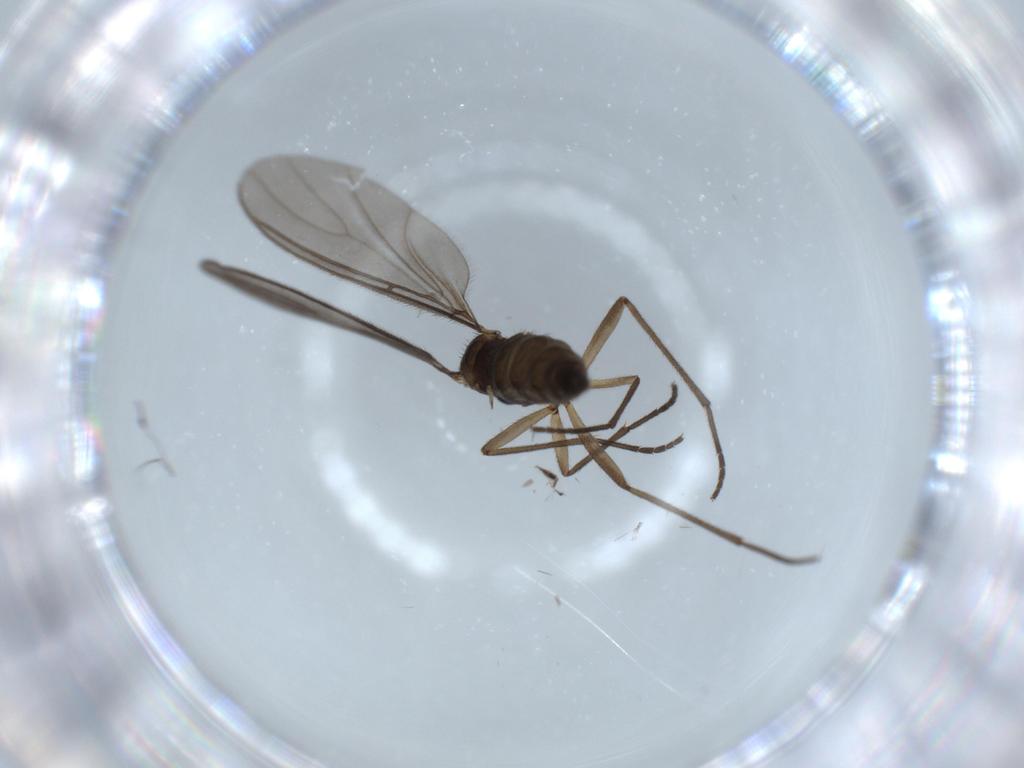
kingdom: Animalia
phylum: Arthropoda
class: Insecta
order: Diptera
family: Sciaridae
